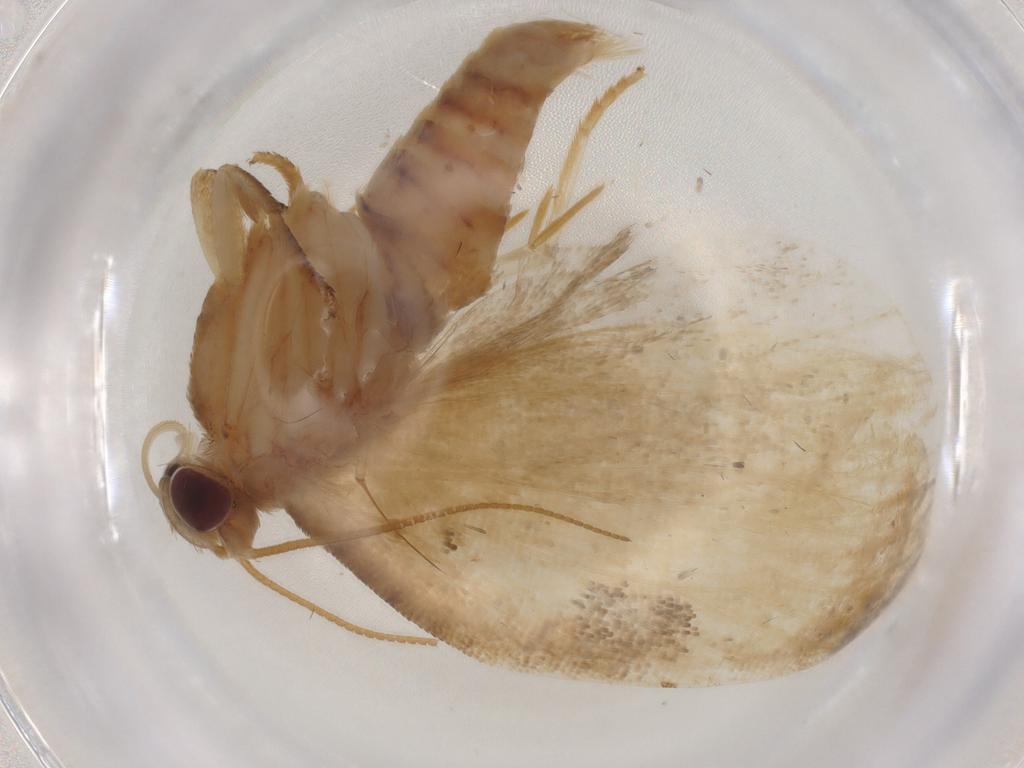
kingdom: Animalia
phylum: Arthropoda
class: Insecta
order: Lepidoptera
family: Tortricidae
